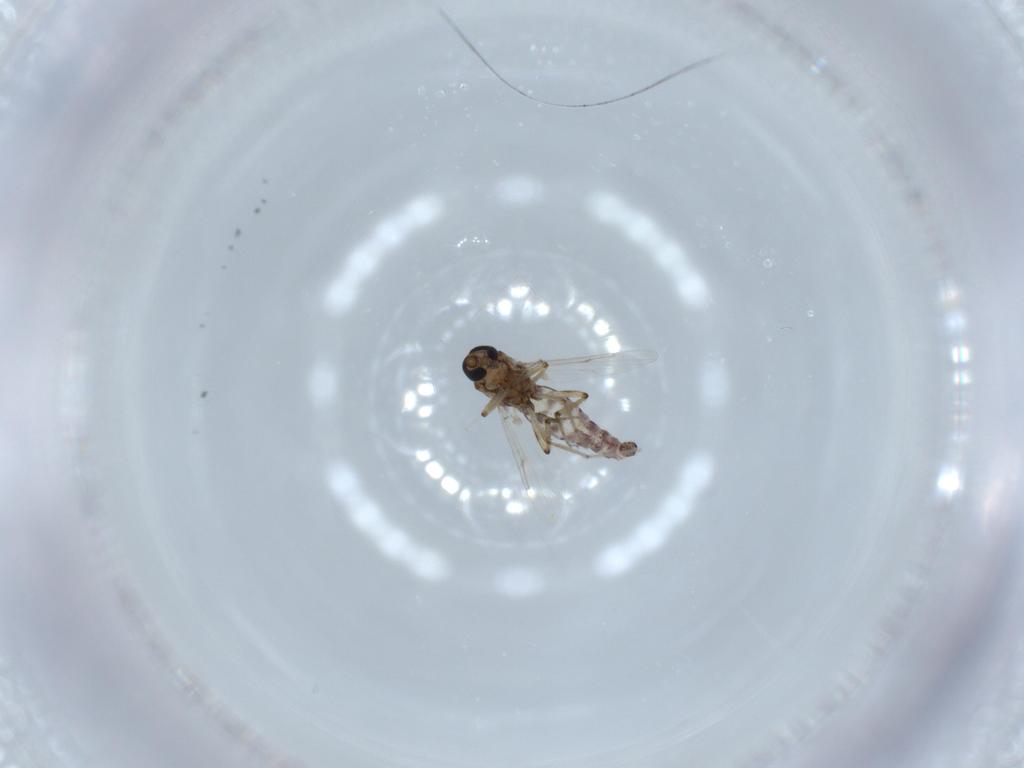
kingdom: Animalia
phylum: Arthropoda
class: Insecta
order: Diptera
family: Ceratopogonidae
